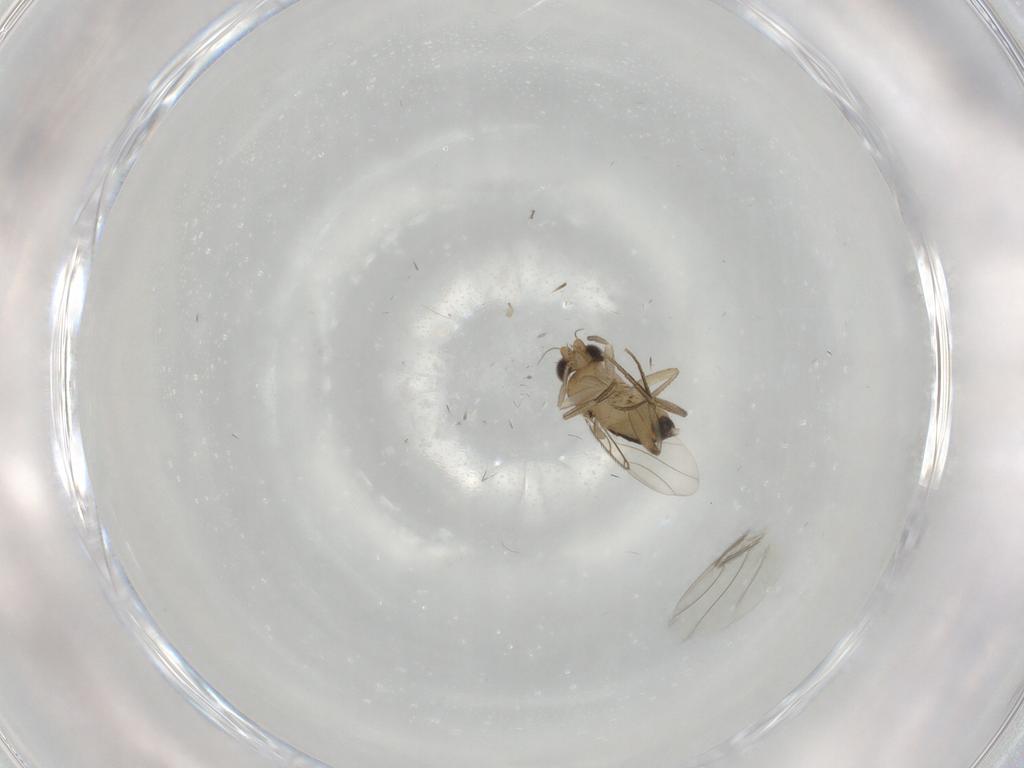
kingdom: Animalia
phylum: Arthropoda
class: Insecta
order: Diptera
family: Phoridae
